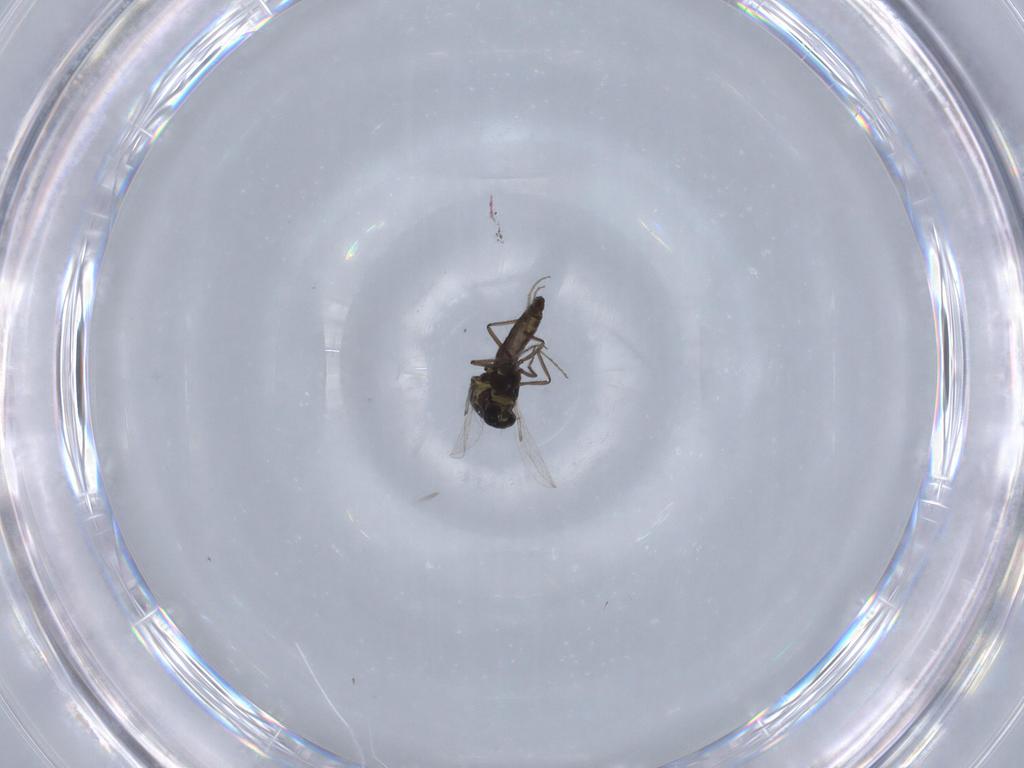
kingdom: Animalia
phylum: Arthropoda
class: Insecta
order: Diptera
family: Ceratopogonidae
